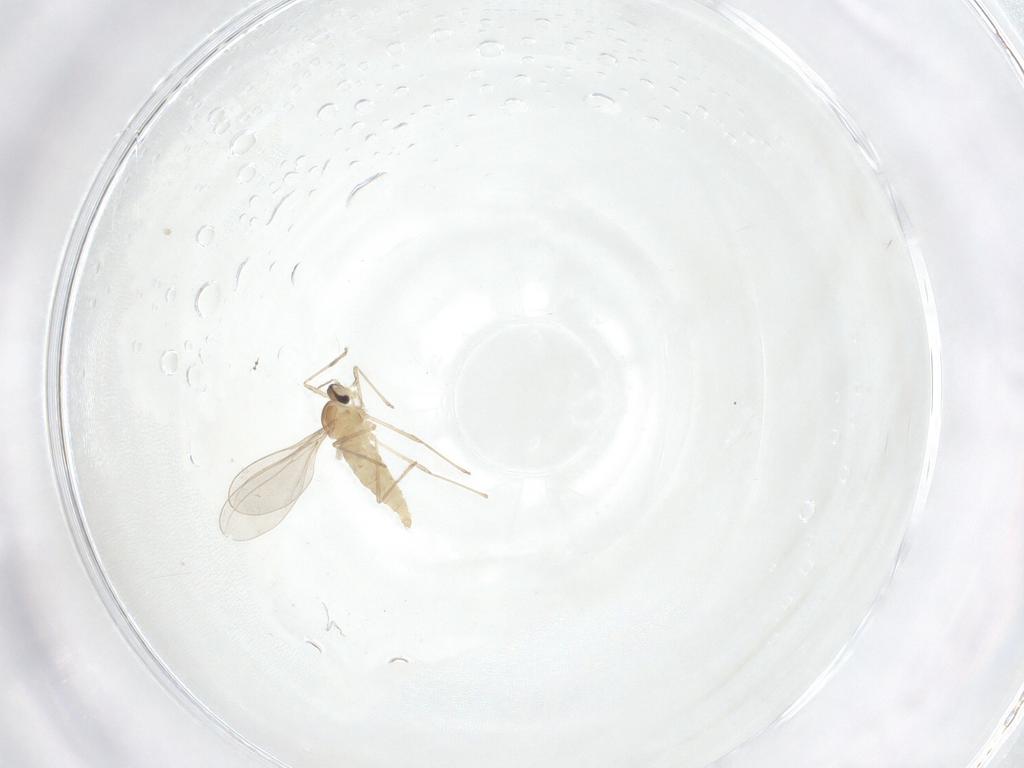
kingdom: Animalia
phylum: Arthropoda
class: Insecta
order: Diptera
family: Cecidomyiidae
